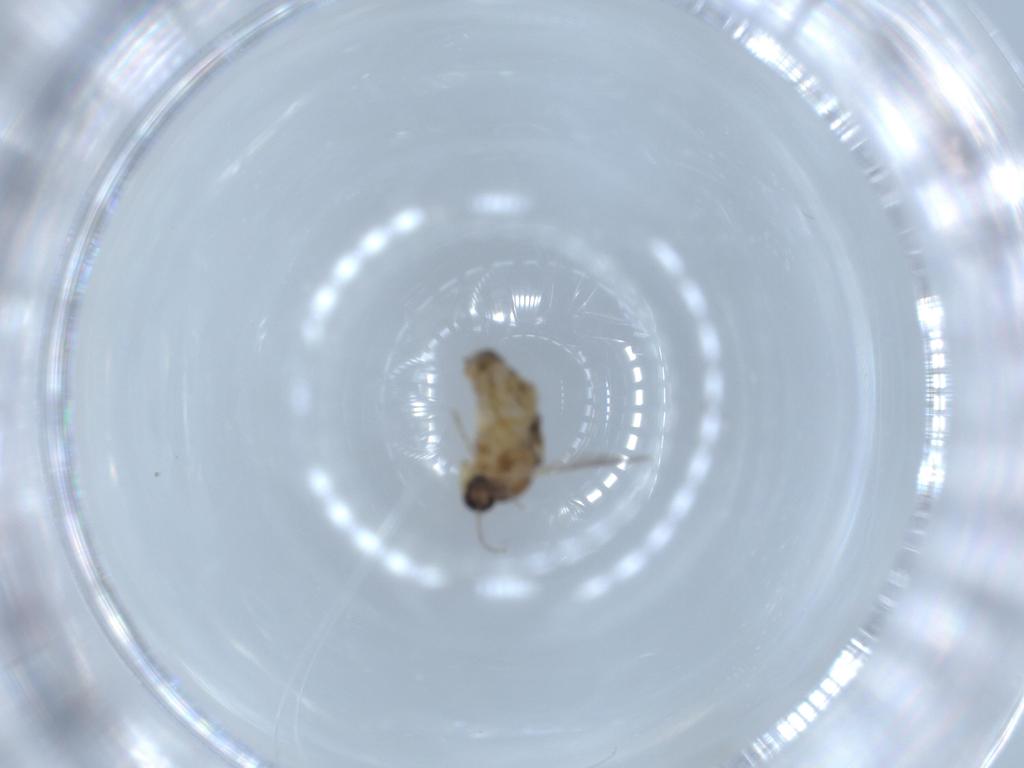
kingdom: Animalia
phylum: Arthropoda
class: Insecta
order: Diptera
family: Ceratopogonidae
